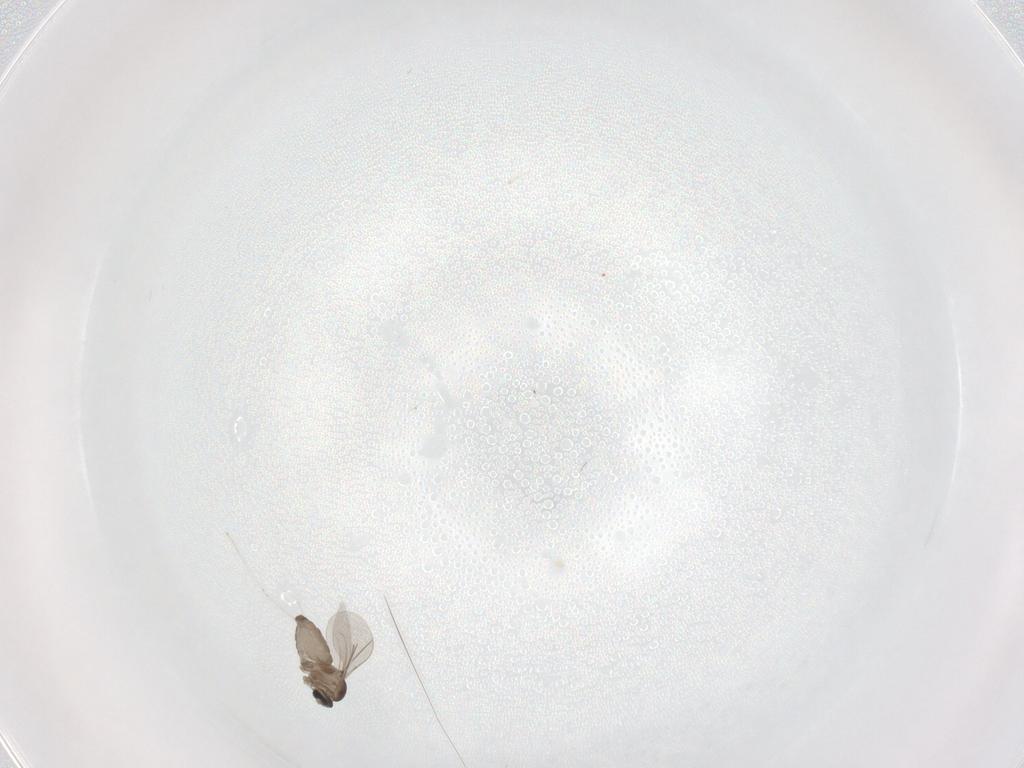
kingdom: Animalia
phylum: Arthropoda
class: Insecta
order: Diptera
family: Cecidomyiidae
